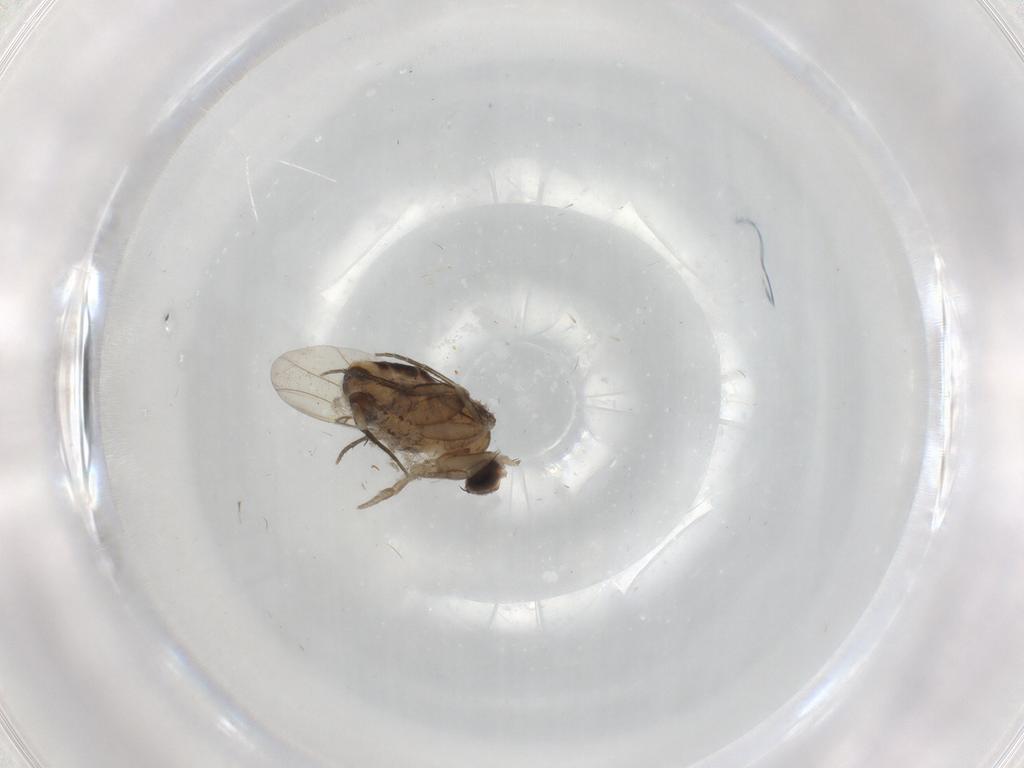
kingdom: Animalia
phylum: Arthropoda
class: Insecta
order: Diptera
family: Phoridae
